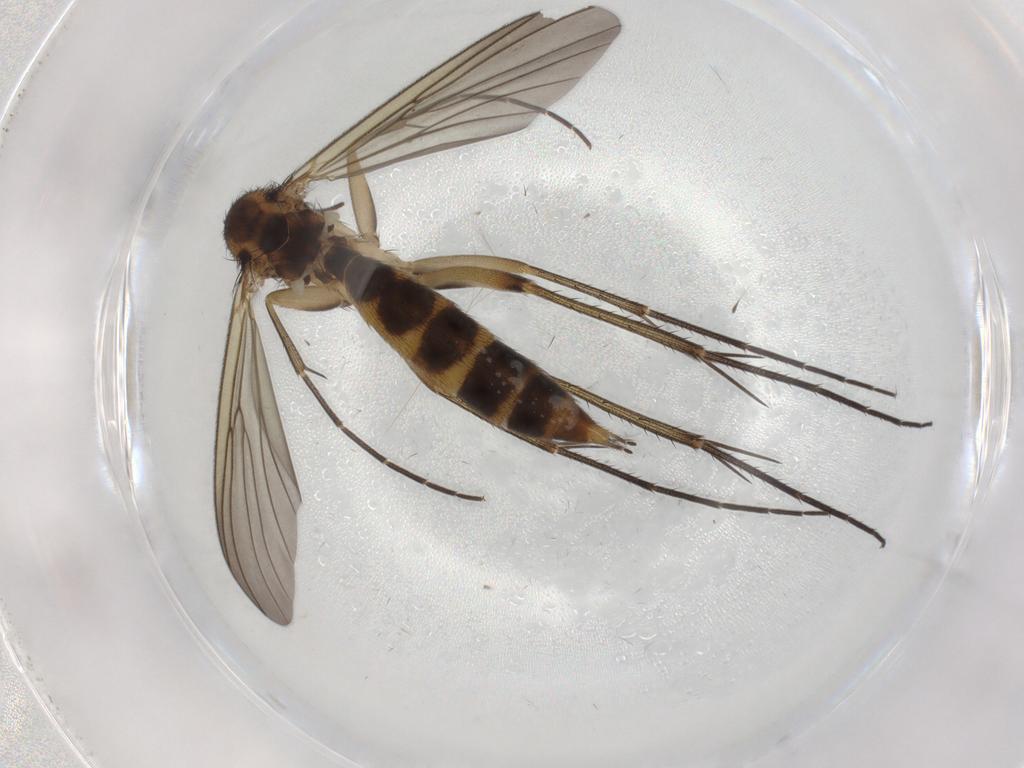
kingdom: Animalia
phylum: Arthropoda
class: Insecta
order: Diptera
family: Mycetophilidae
